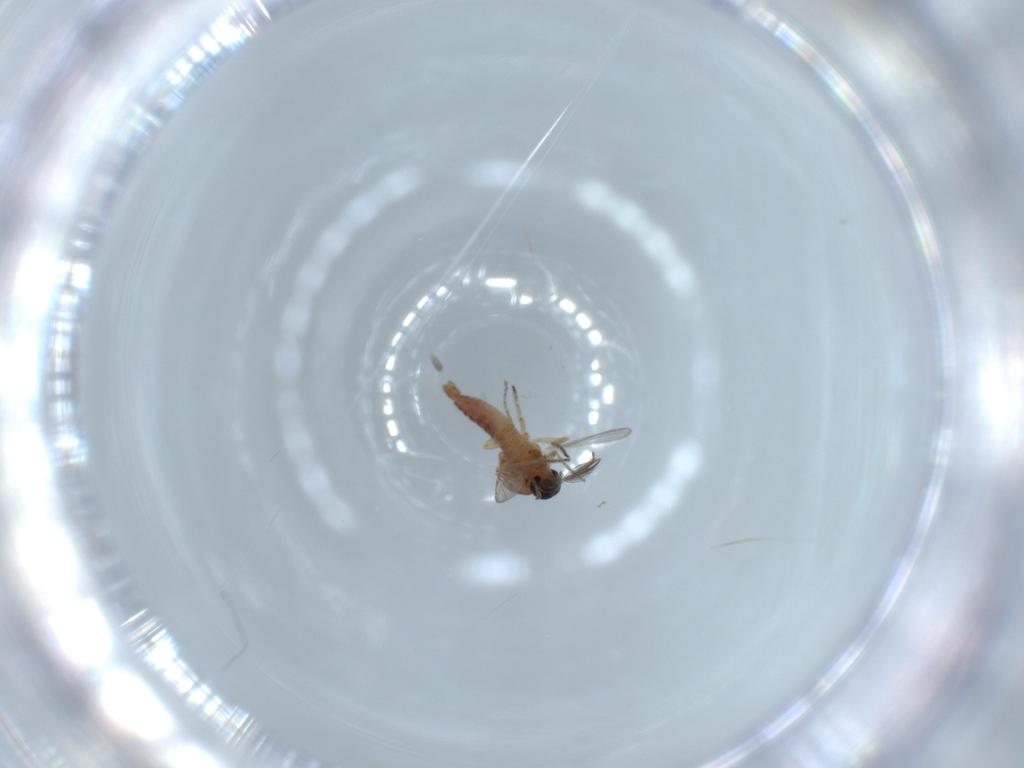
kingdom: Animalia
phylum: Arthropoda
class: Insecta
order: Diptera
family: Ceratopogonidae
